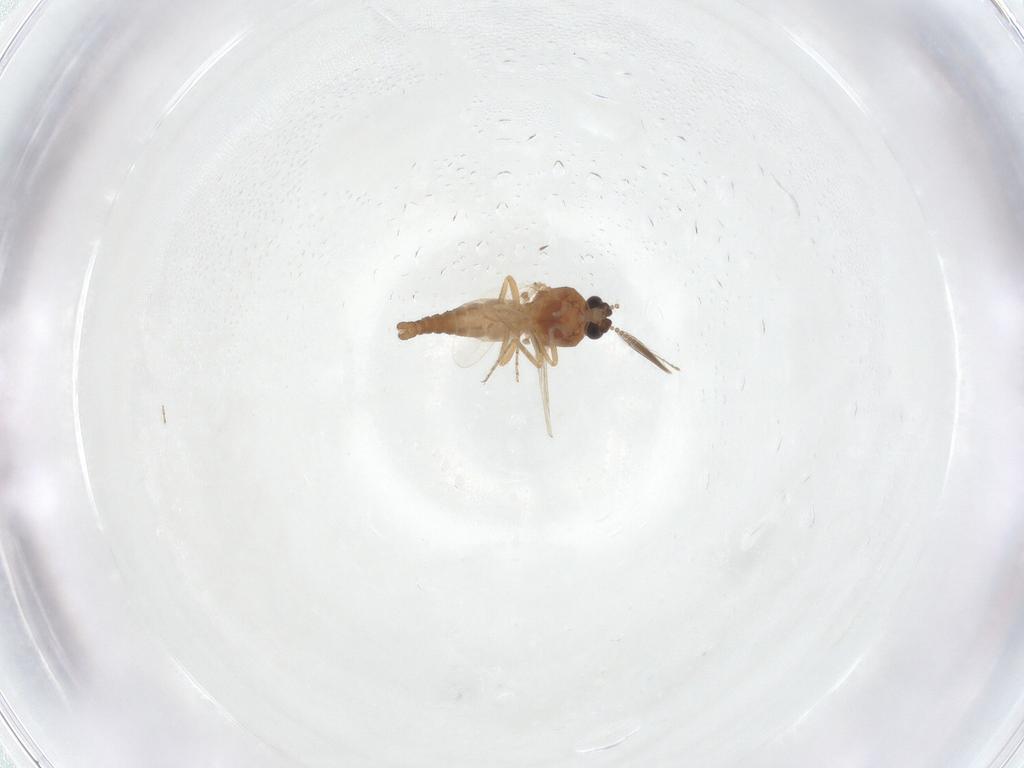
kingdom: Animalia
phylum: Arthropoda
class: Insecta
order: Diptera
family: Ceratopogonidae
